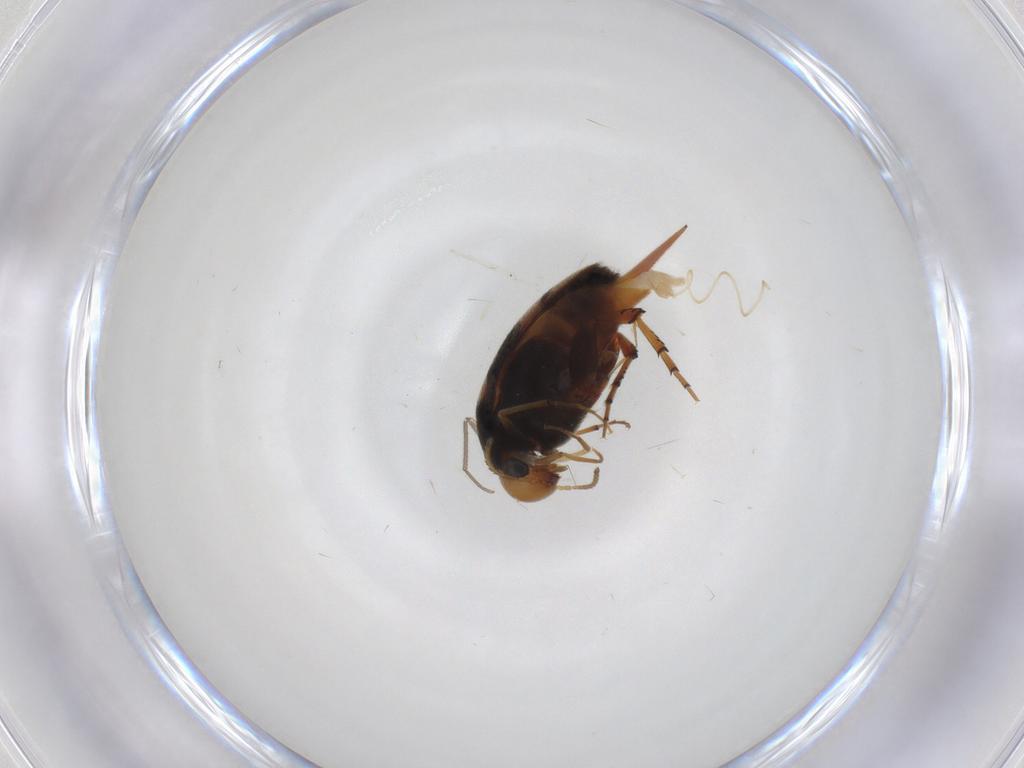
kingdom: Animalia
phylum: Arthropoda
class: Insecta
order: Coleoptera
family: Mordellidae
